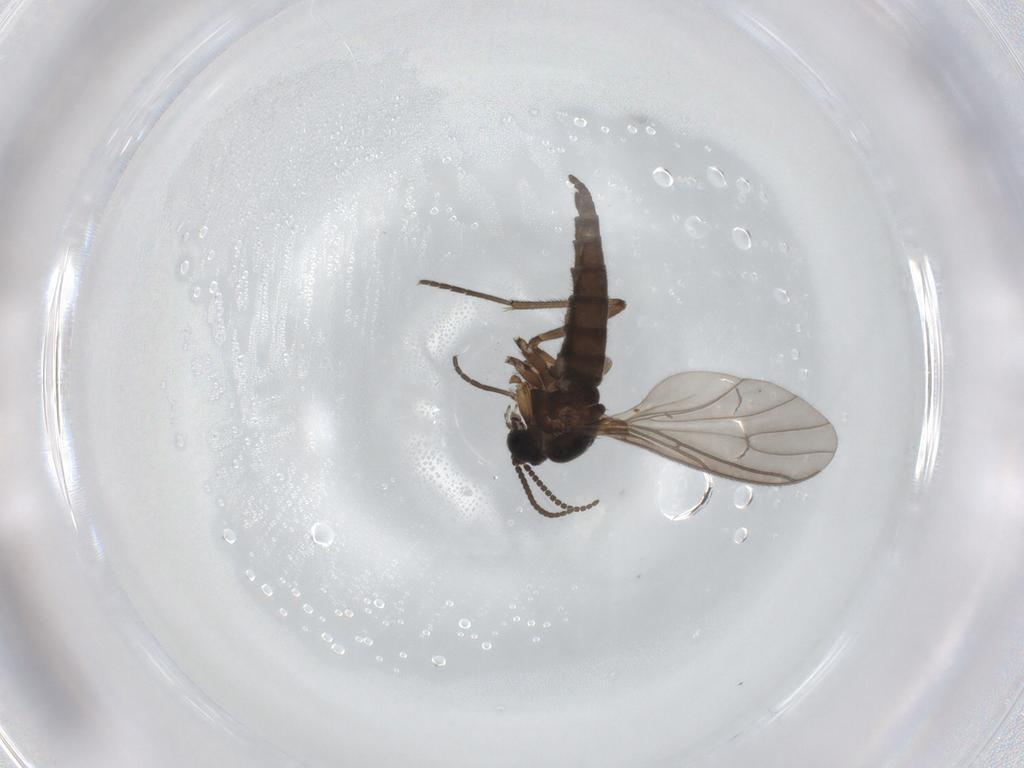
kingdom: Animalia
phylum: Arthropoda
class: Insecta
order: Diptera
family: Sciaridae
